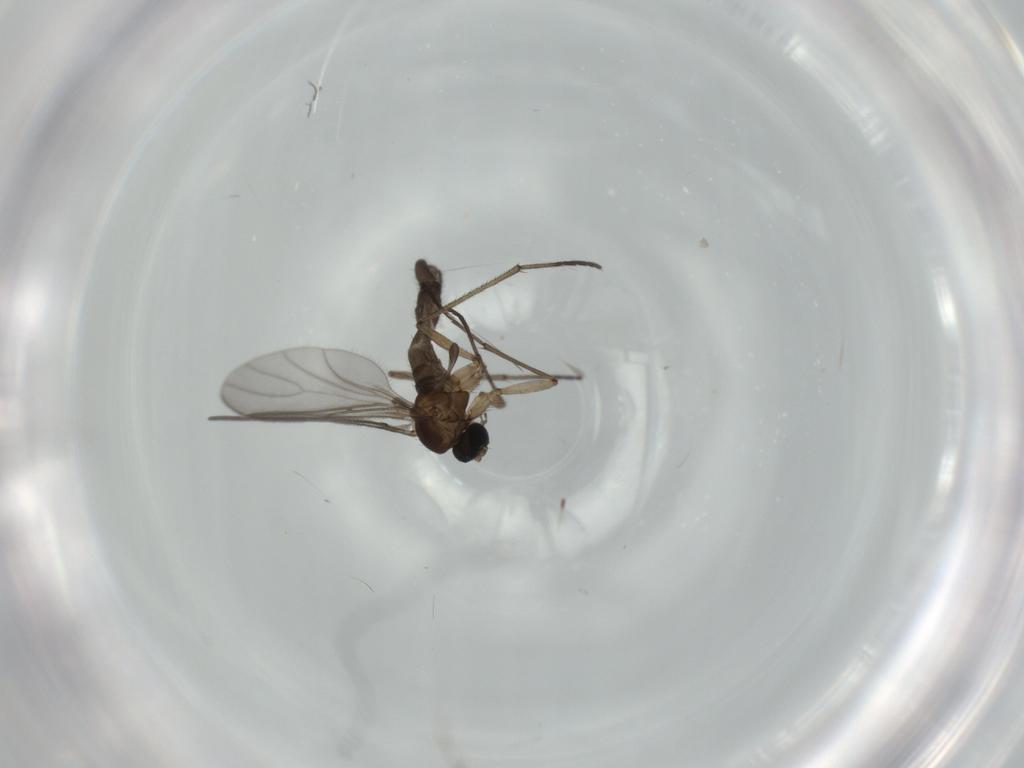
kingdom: Animalia
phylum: Arthropoda
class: Insecta
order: Diptera
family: Sciaridae
